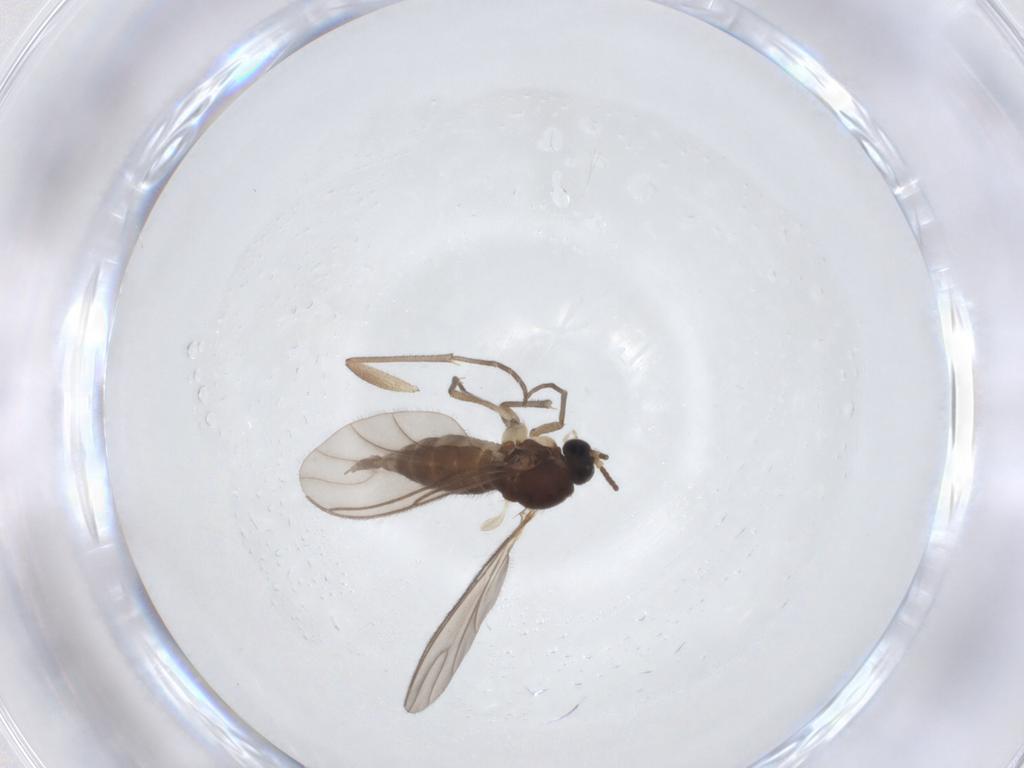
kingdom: Animalia
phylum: Arthropoda
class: Insecta
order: Diptera
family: Sciaridae
